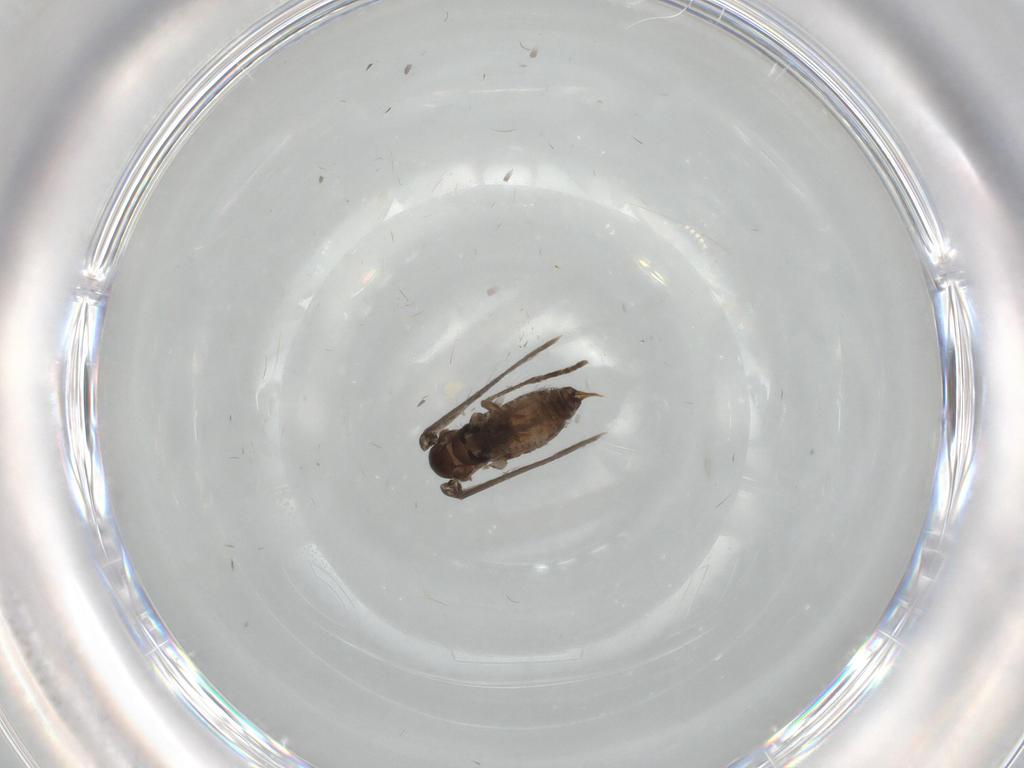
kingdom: Animalia
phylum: Arthropoda
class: Insecta
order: Diptera
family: Psychodidae
